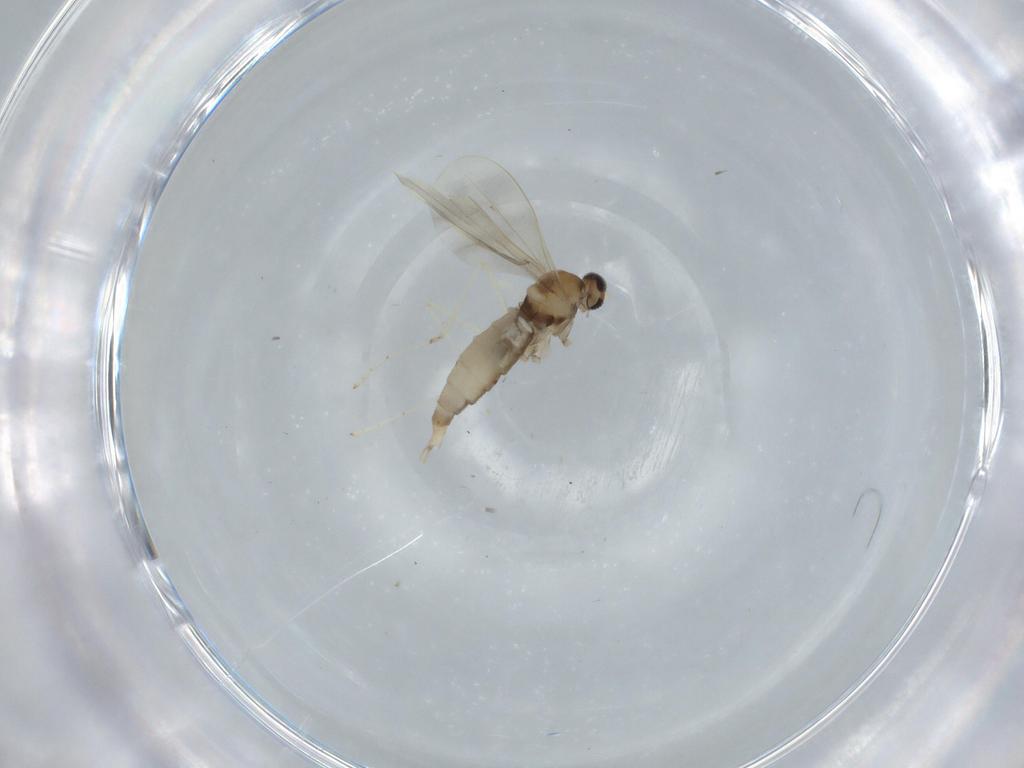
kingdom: Animalia
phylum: Arthropoda
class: Insecta
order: Diptera
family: Cecidomyiidae
